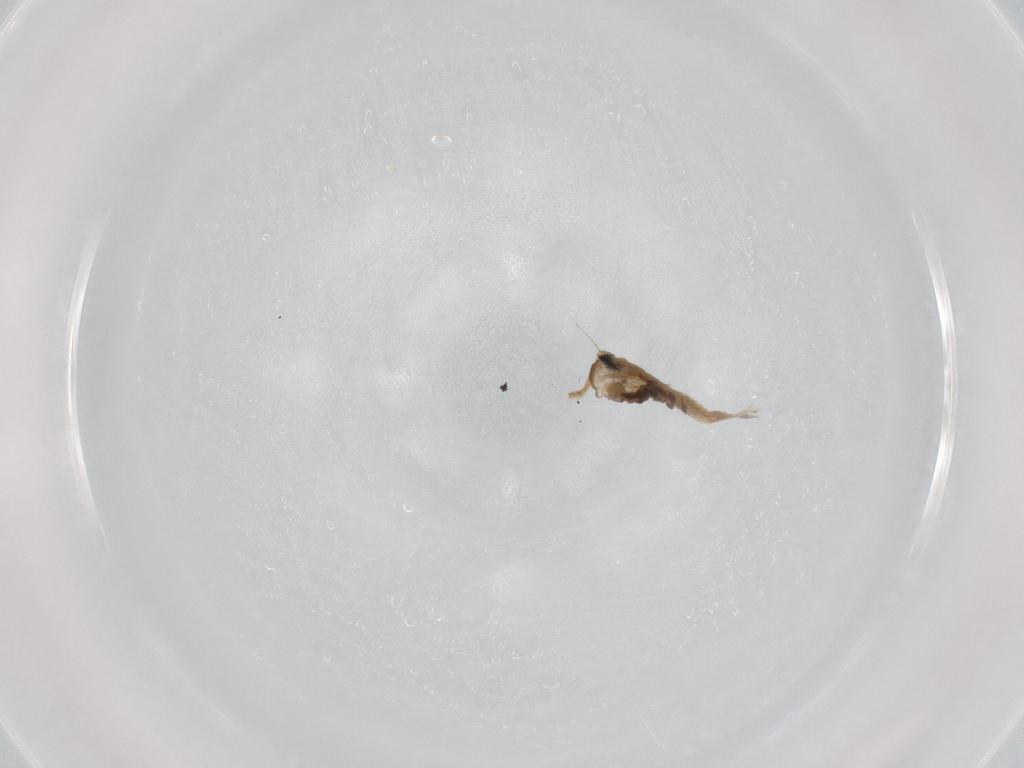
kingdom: Animalia
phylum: Arthropoda
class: Insecta
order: Diptera
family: Cecidomyiidae
